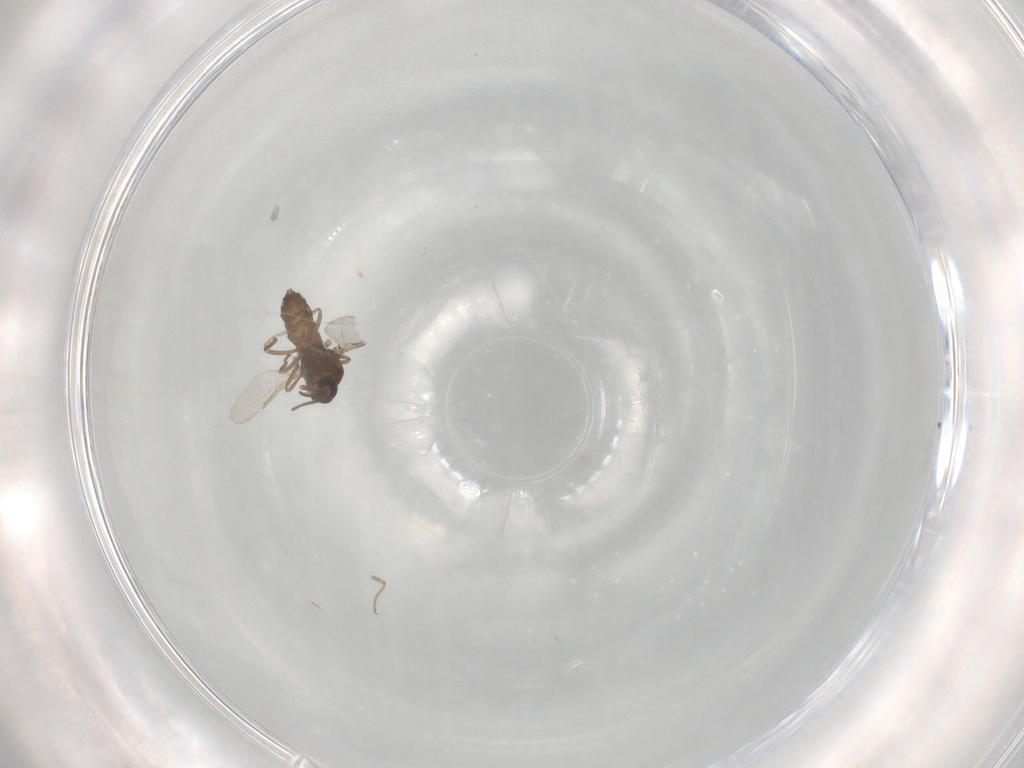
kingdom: Animalia
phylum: Arthropoda
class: Insecta
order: Diptera
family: Ceratopogonidae
